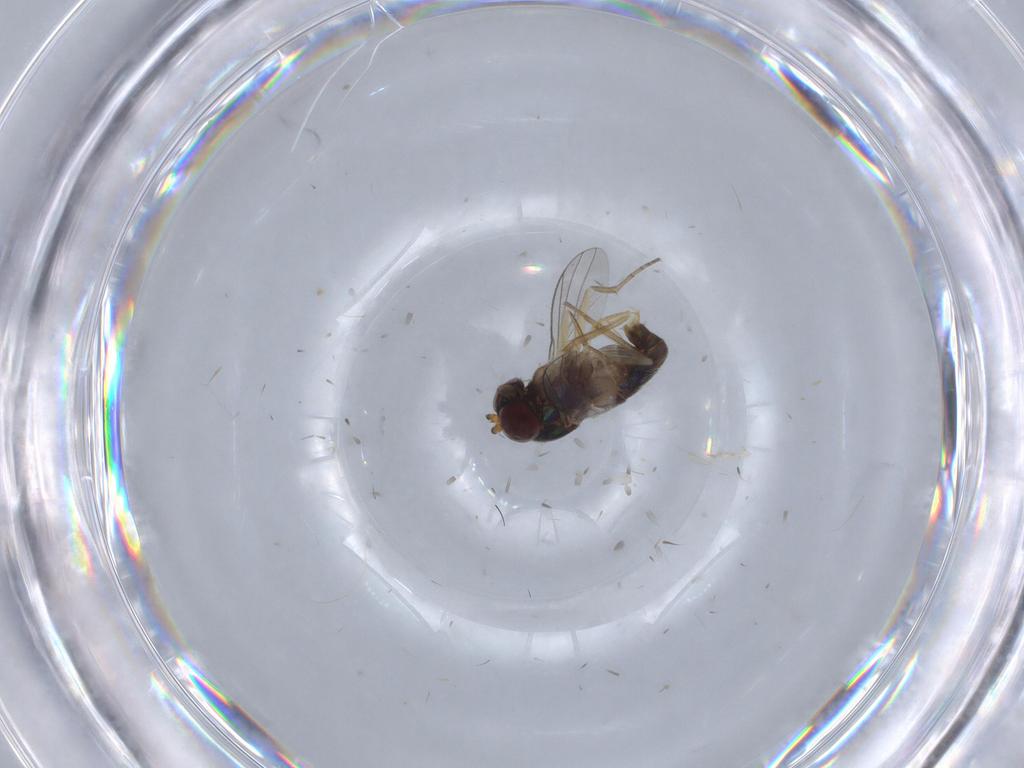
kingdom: Animalia
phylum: Arthropoda
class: Insecta
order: Diptera
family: Dolichopodidae
